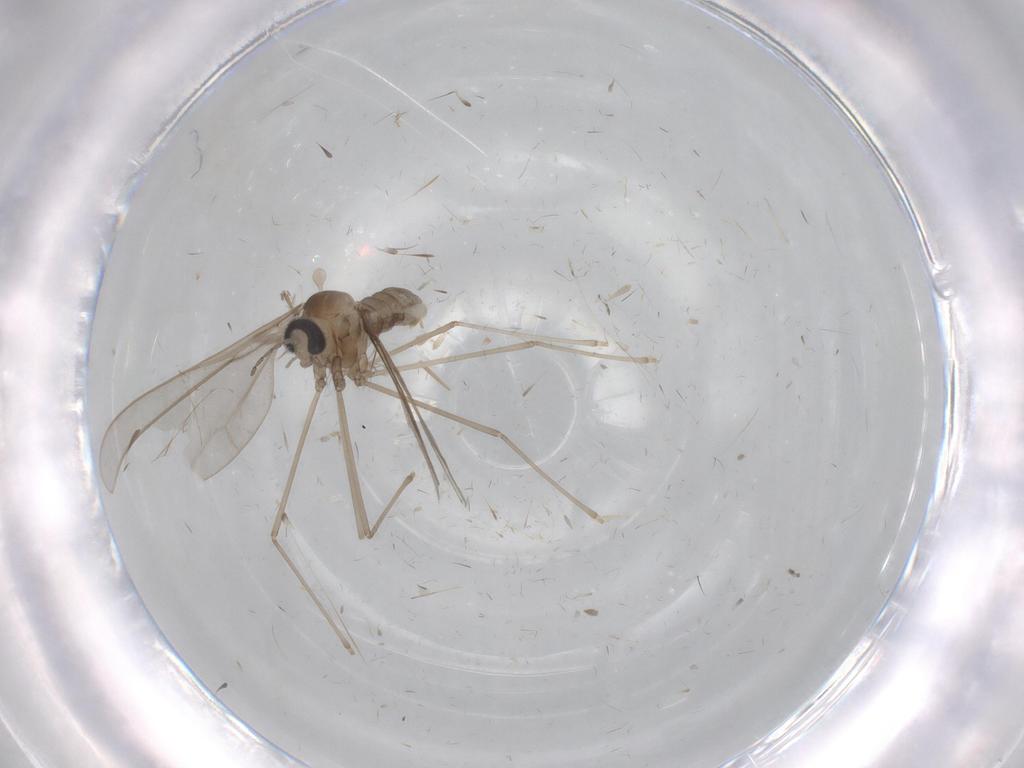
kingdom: Animalia
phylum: Arthropoda
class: Insecta
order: Diptera
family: Cecidomyiidae
